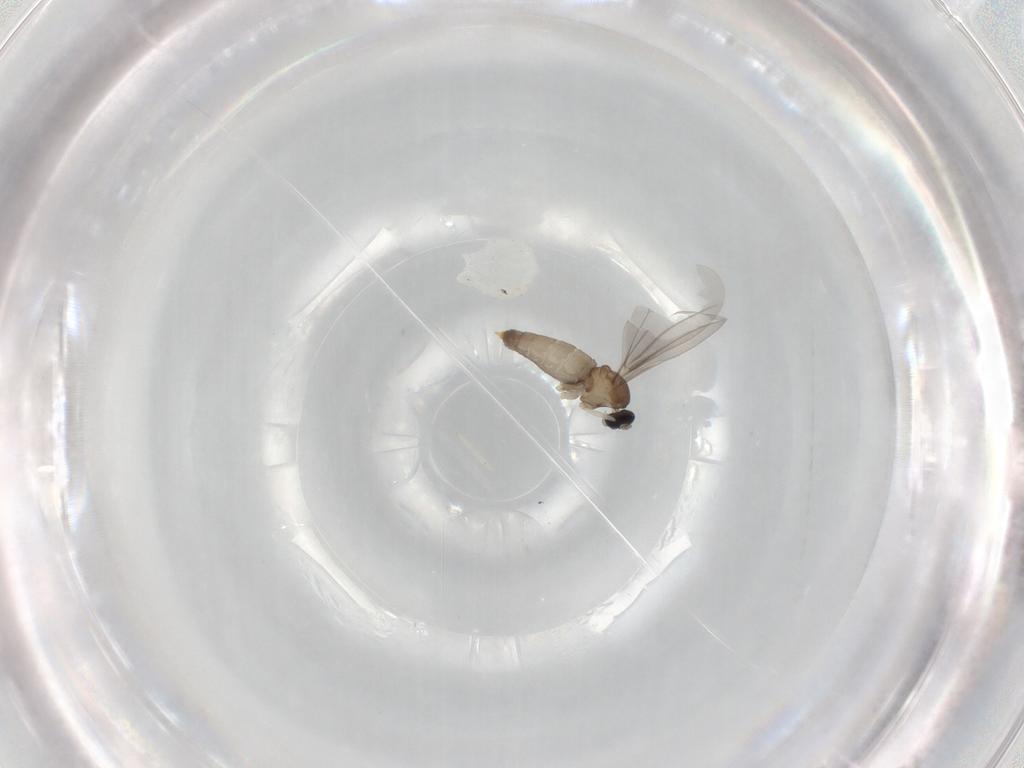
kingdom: Animalia
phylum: Arthropoda
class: Insecta
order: Diptera
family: Cecidomyiidae
